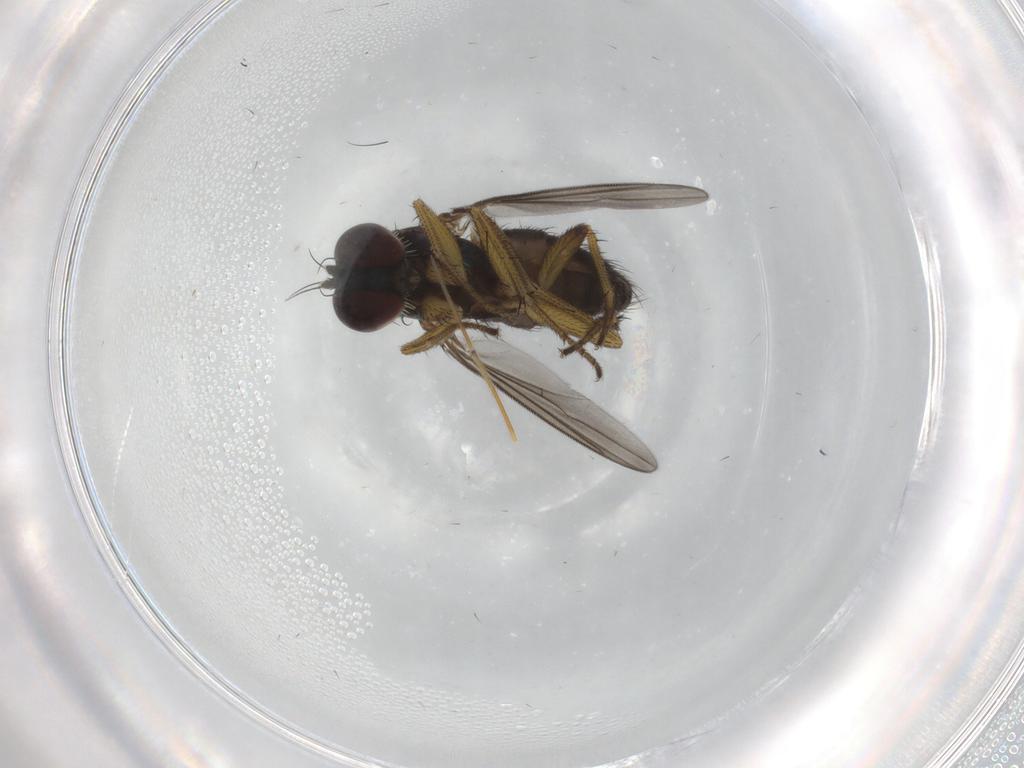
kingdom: Animalia
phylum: Arthropoda
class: Insecta
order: Diptera
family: Dolichopodidae
